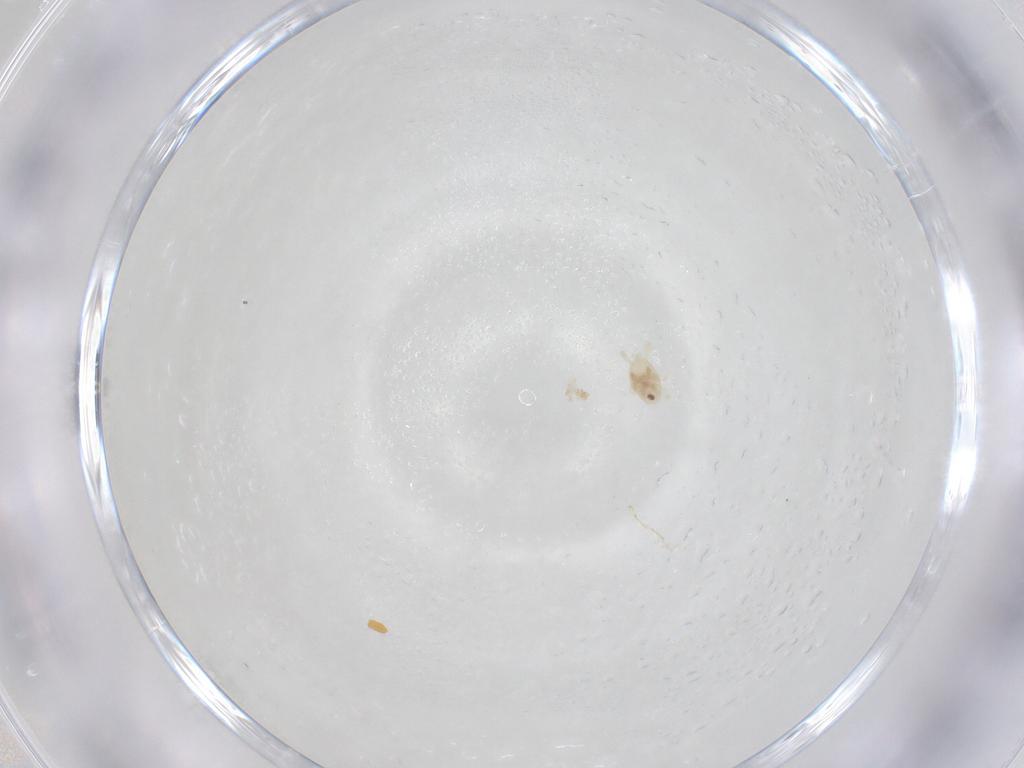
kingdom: Animalia
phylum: Arthropoda
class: Insecta
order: Diptera
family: Sciaridae
